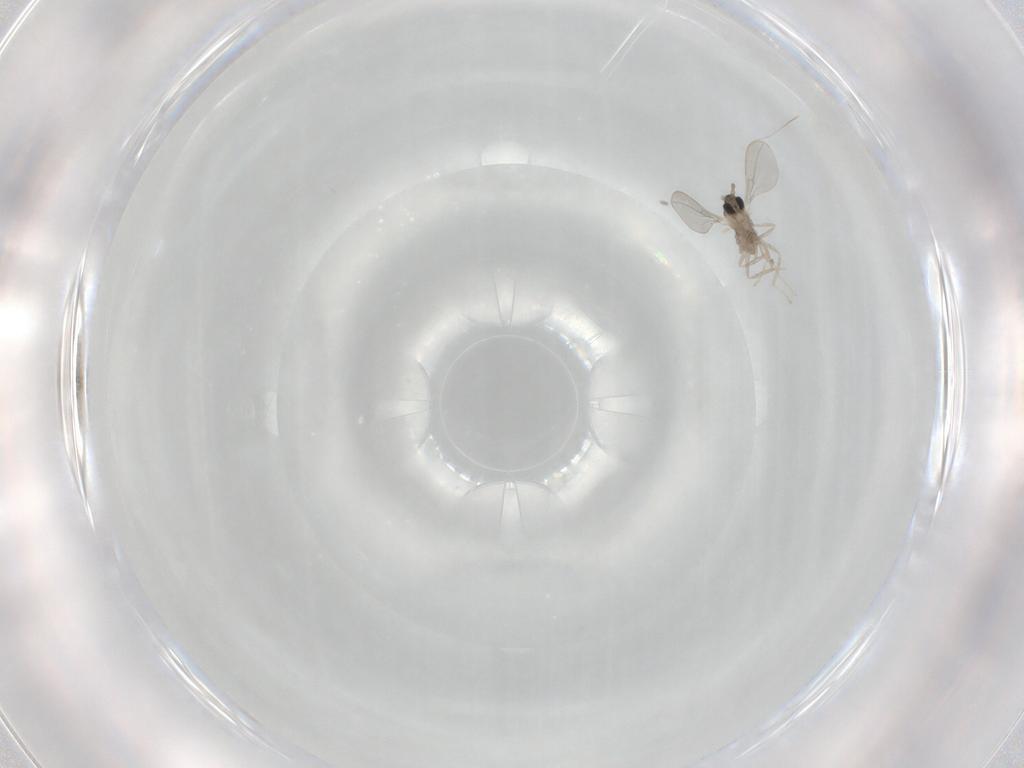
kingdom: Animalia
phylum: Arthropoda
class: Insecta
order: Diptera
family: Cecidomyiidae
